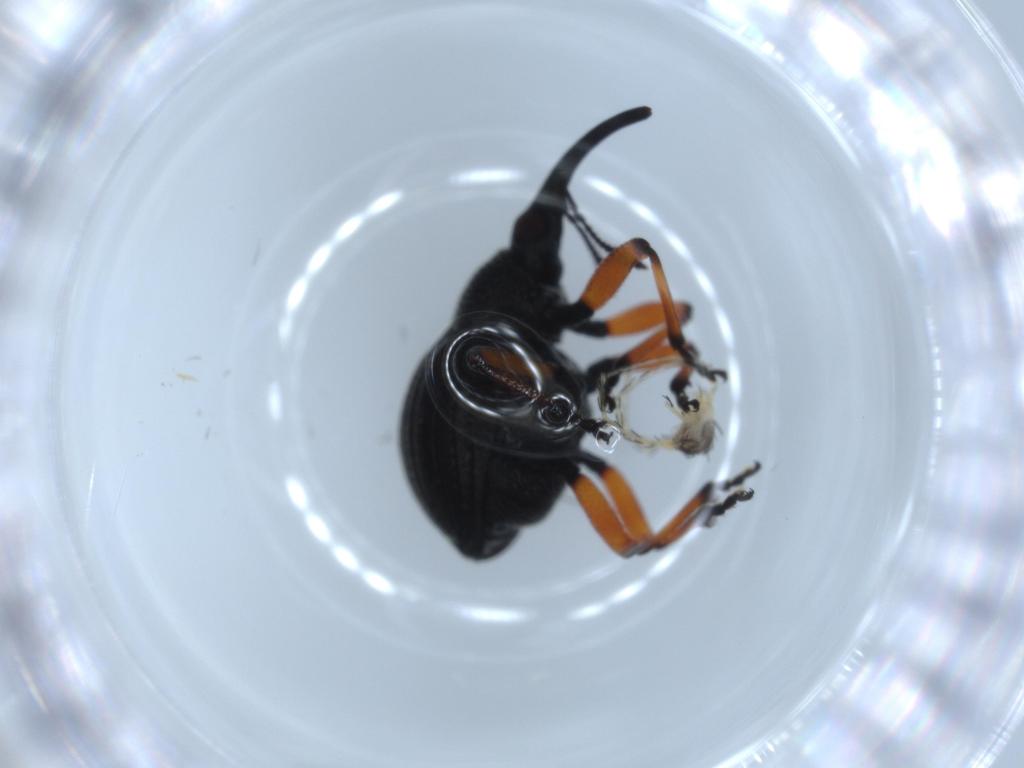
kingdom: Animalia
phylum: Arthropoda
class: Insecta
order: Coleoptera
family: Brentidae
